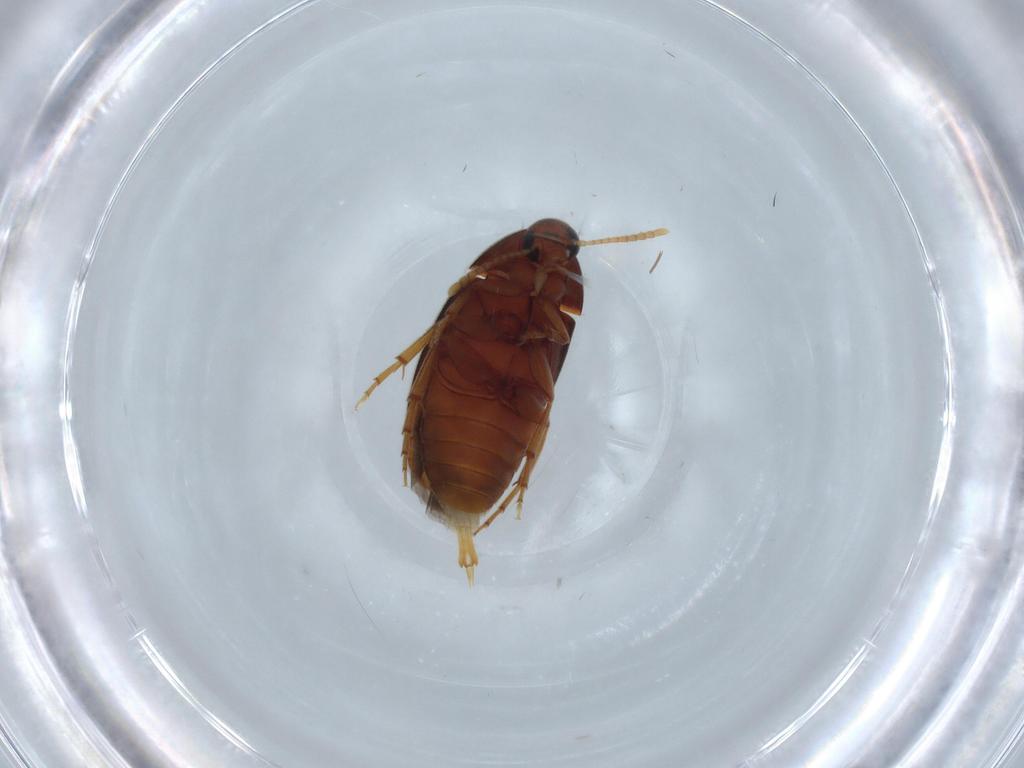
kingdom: Animalia
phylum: Arthropoda
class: Insecta
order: Coleoptera
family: Scraptiidae
